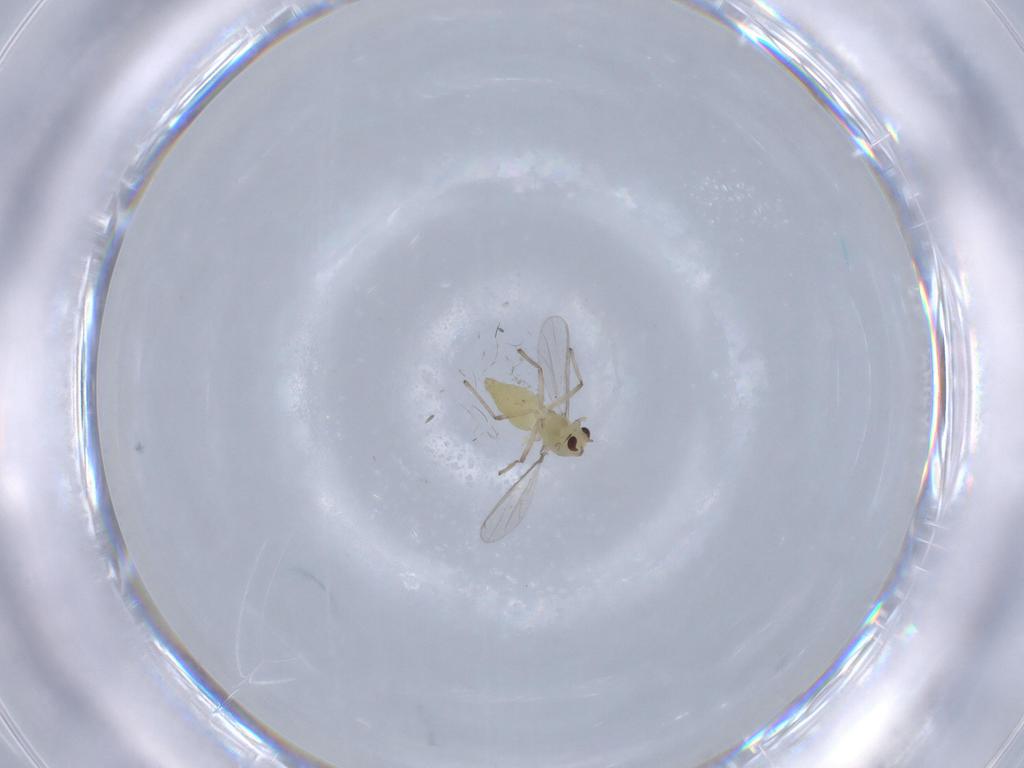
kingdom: Animalia
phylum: Arthropoda
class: Insecta
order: Diptera
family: Chironomidae
